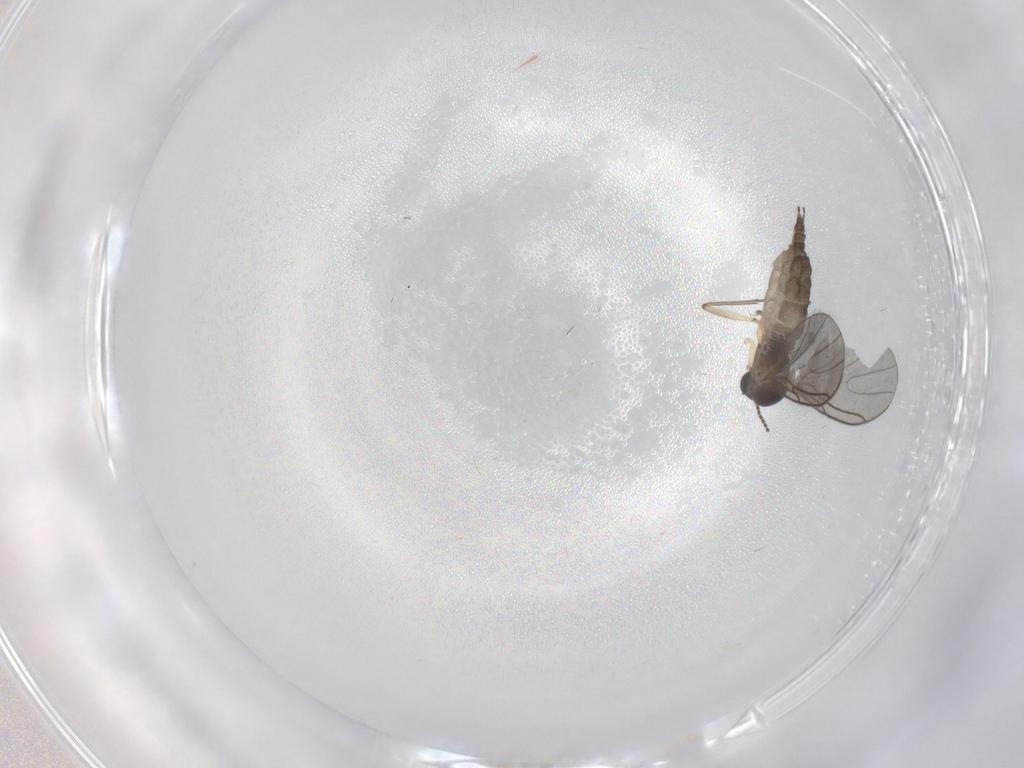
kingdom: Animalia
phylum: Arthropoda
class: Insecta
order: Diptera
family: Sciaridae
